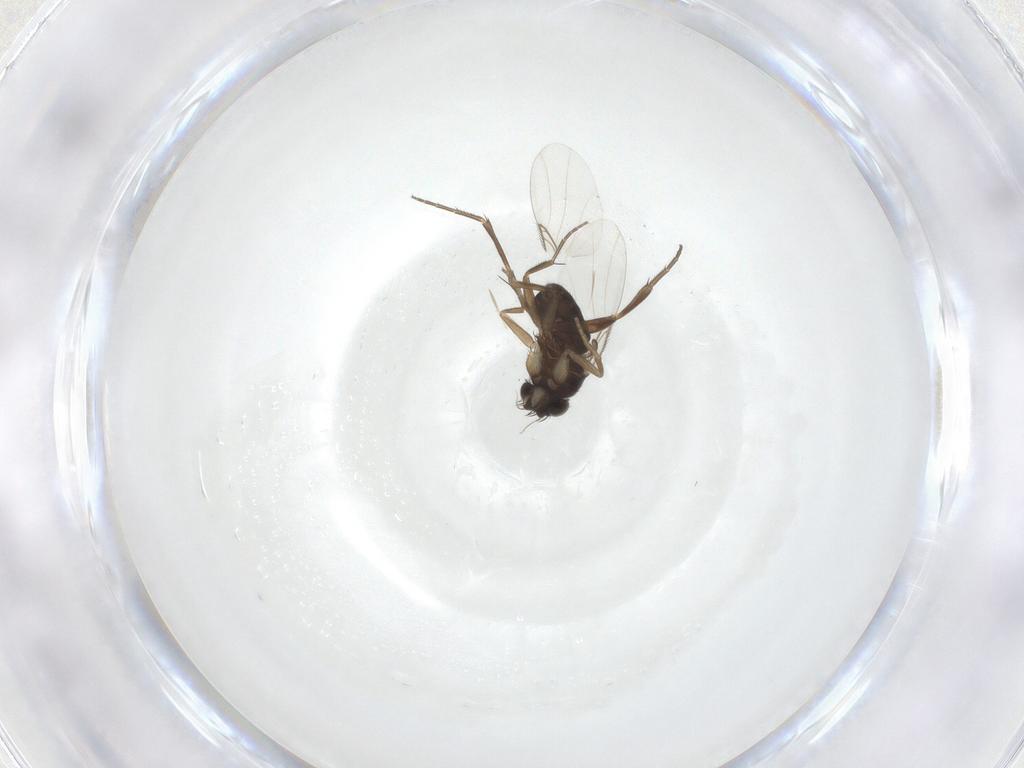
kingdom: Animalia
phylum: Arthropoda
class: Insecta
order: Diptera
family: Phoridae
